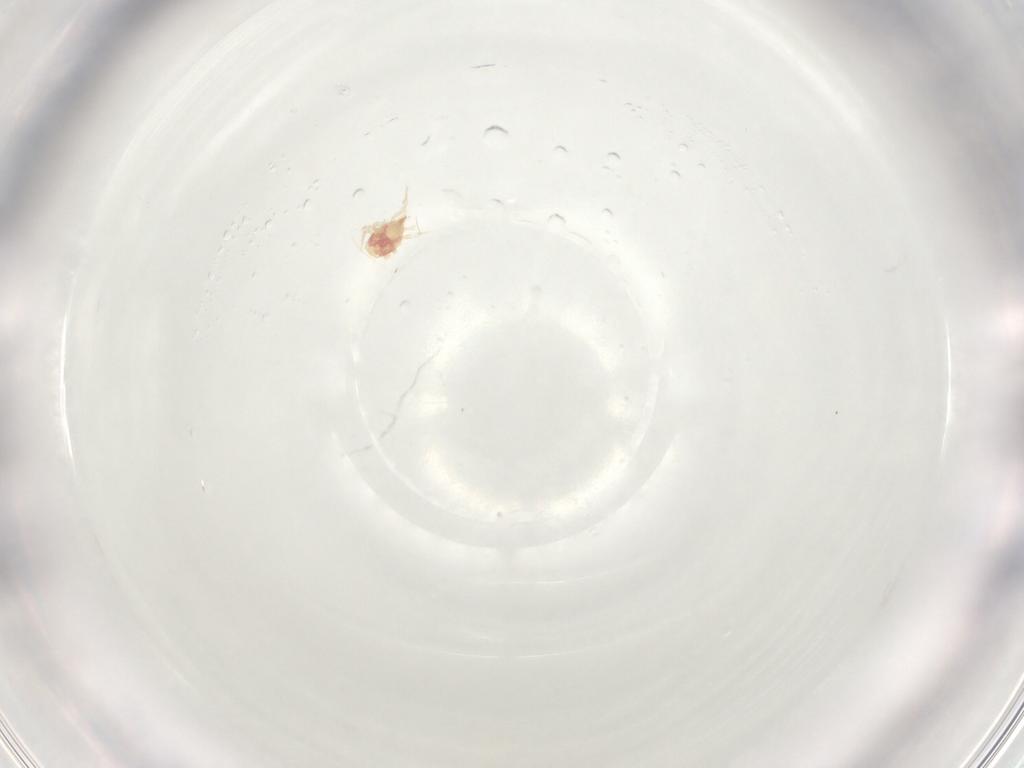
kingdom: Animalia
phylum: Arthropoda
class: Arachnida
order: Mesostigmata
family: Phytoseiidae
